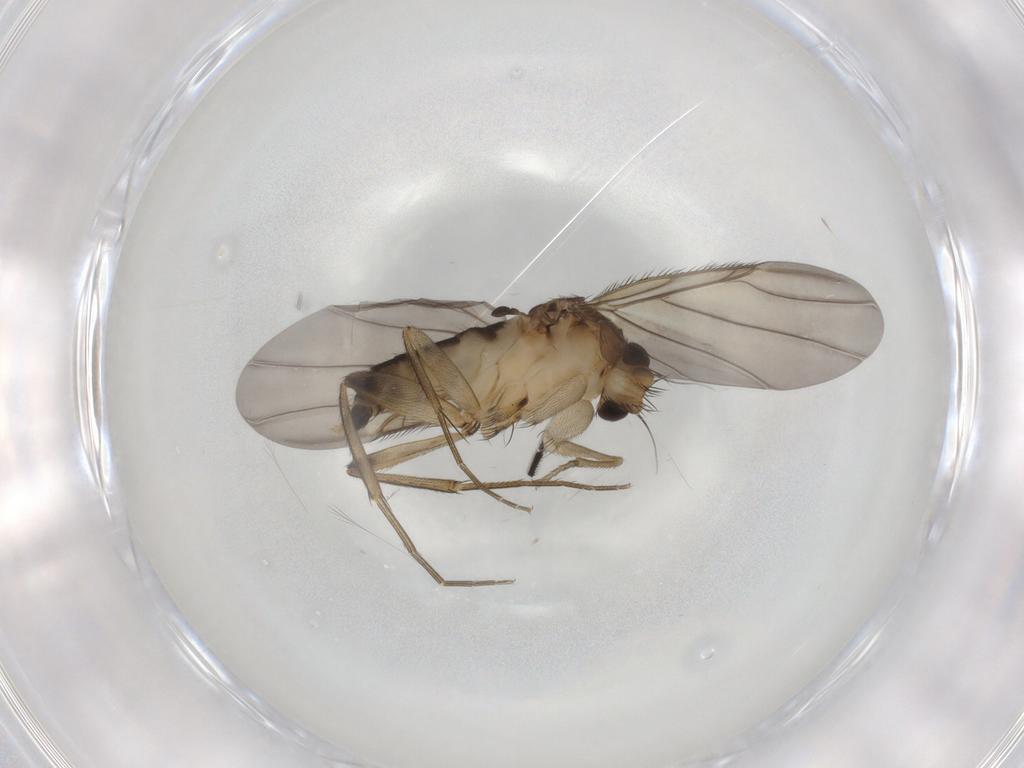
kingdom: Animalia
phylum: Arthropoda
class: Insecta
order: Diptera
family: Phoridae
